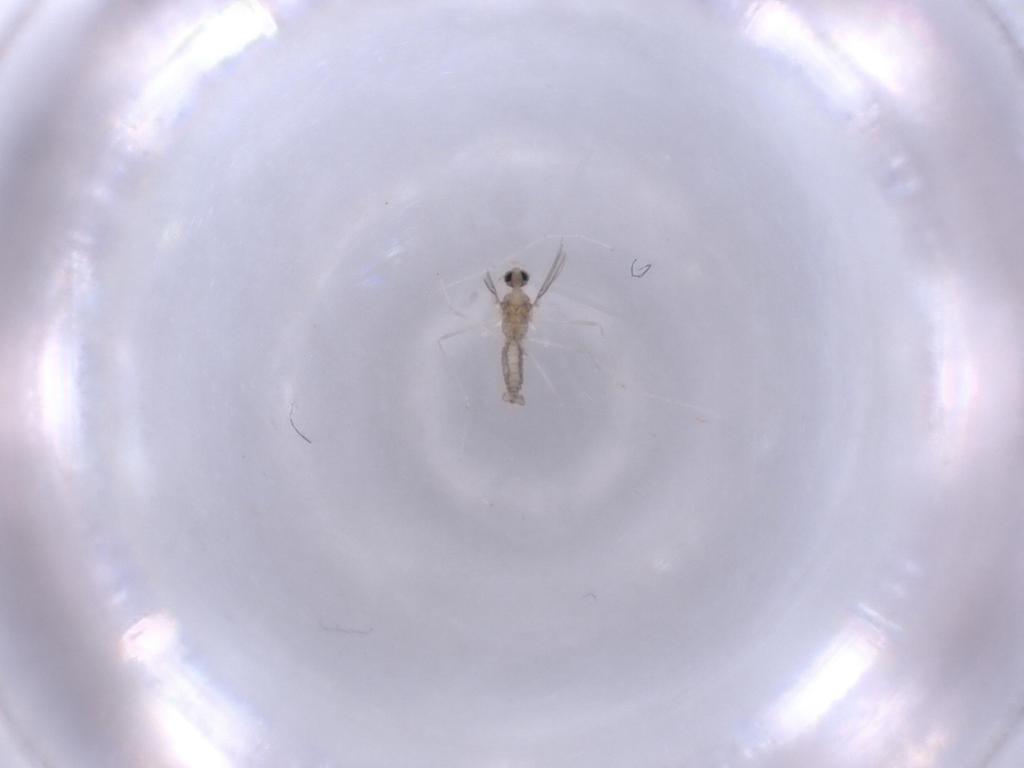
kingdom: Animalia
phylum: Arthropoda
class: Insecta
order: Diptera
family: Cecidomyiidae
